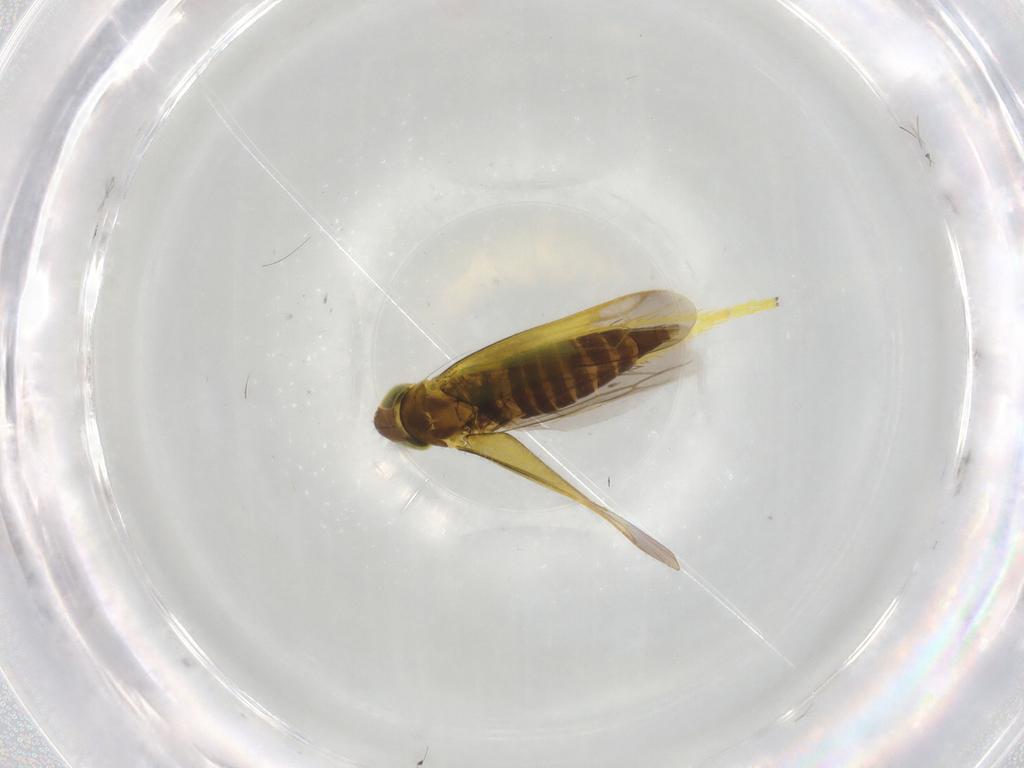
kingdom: Animalia
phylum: Arthropoda
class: Insecta
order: Hemiptera
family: Cicadellidae
